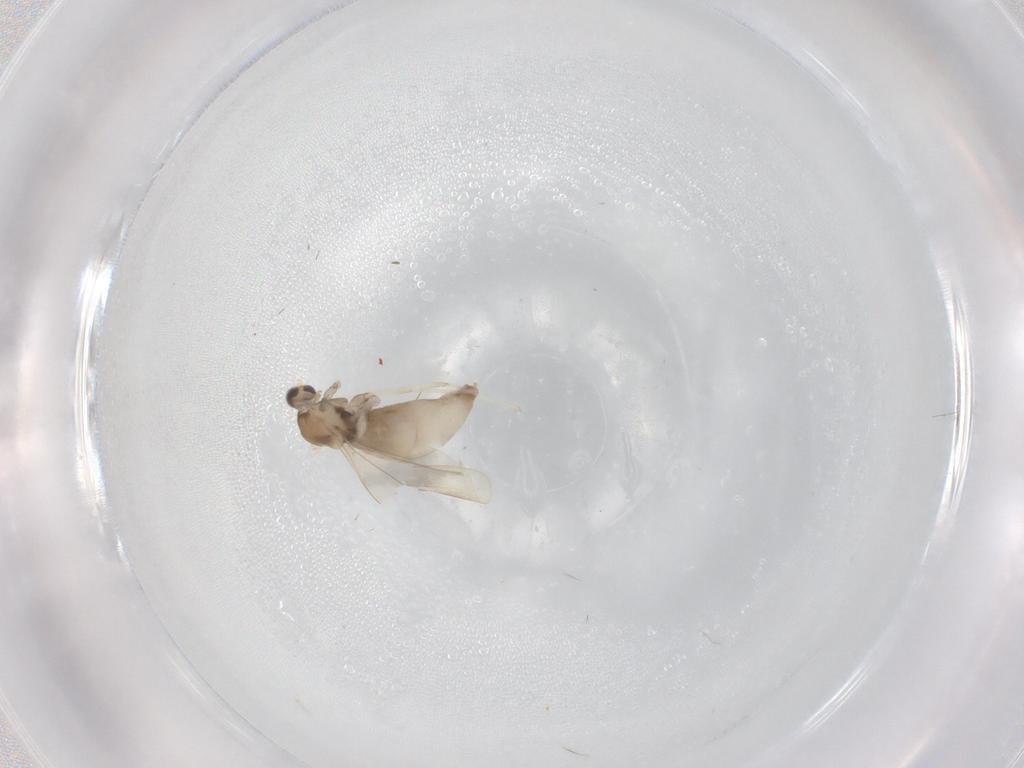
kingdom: Animalia
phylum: Arthropoda
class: Insecta
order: Diptera
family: Cecidomyiidae
